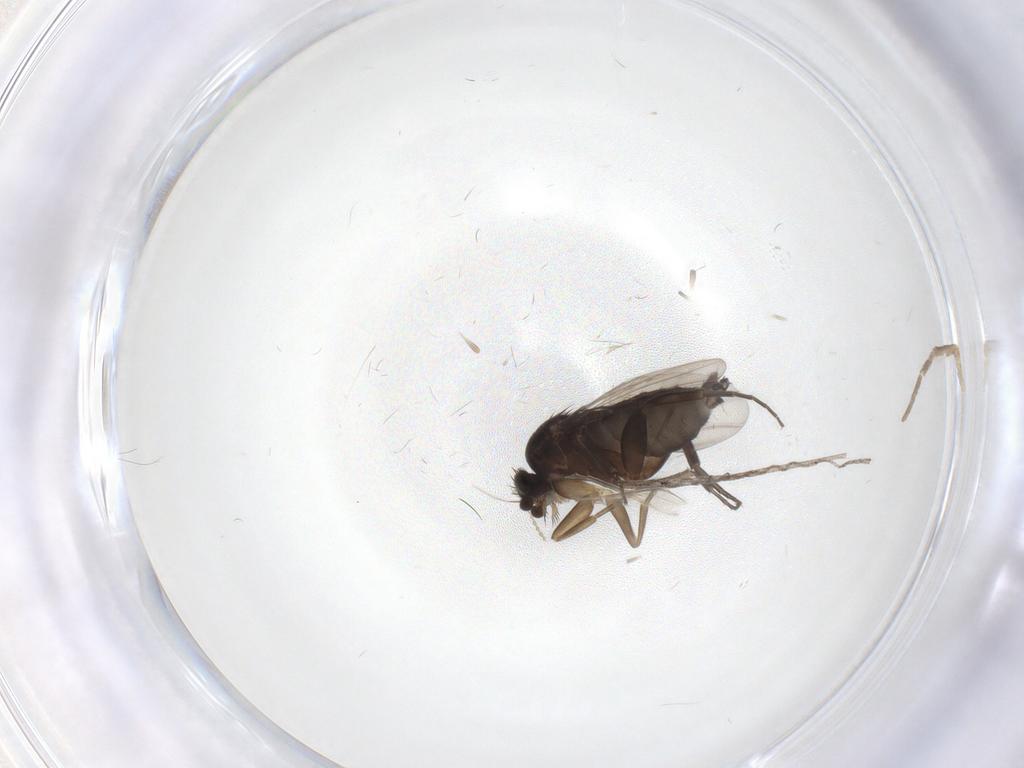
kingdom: Animalia
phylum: Arthropoda
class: Insecta
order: Diptera
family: Phoridae
